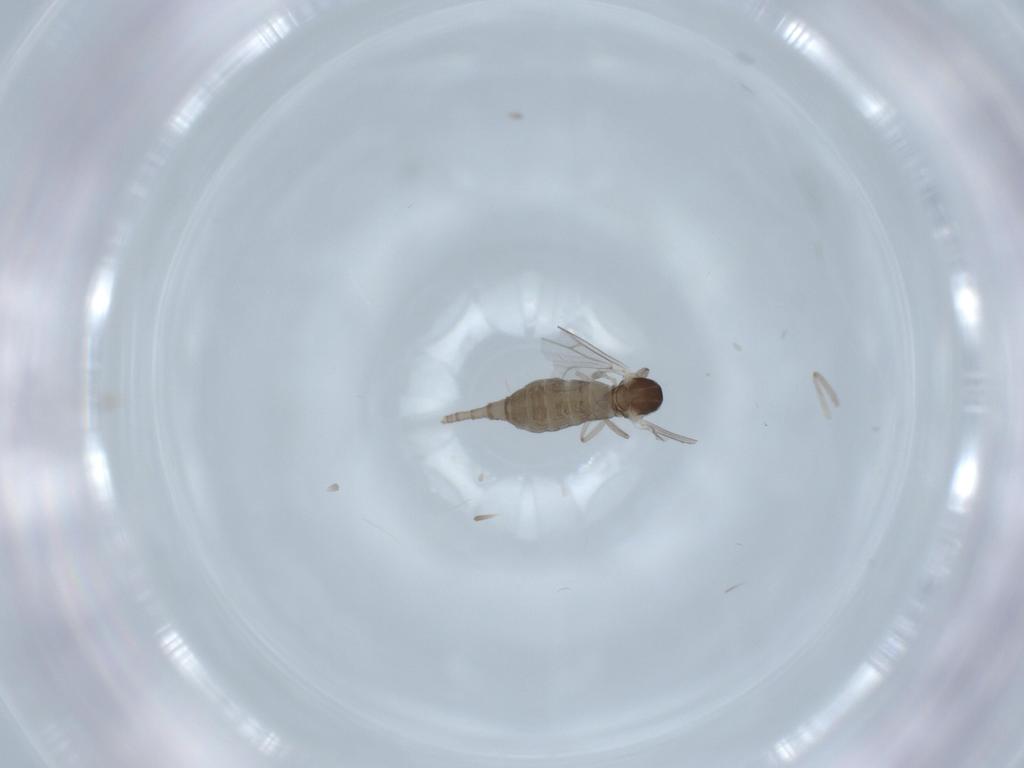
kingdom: Animalia
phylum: Arthropoda
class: Insecta
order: Diptera
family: Cecidomyiidae
